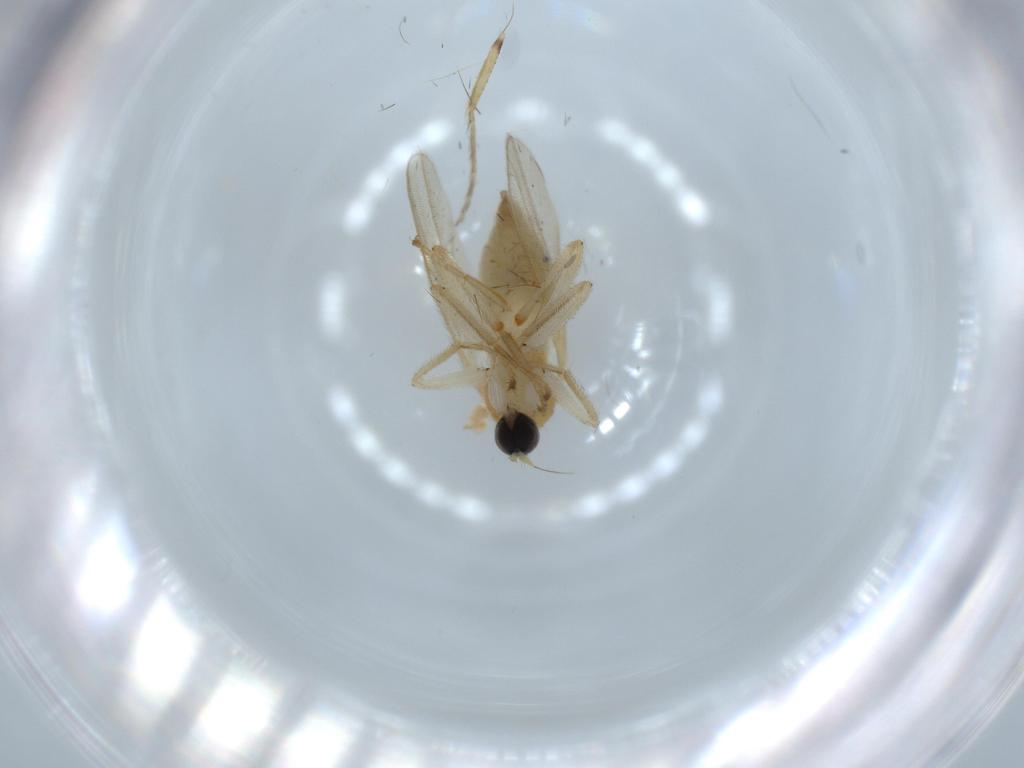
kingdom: Animalia
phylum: Arthropoda
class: Insecta
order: Diptera
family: Hybotidae
